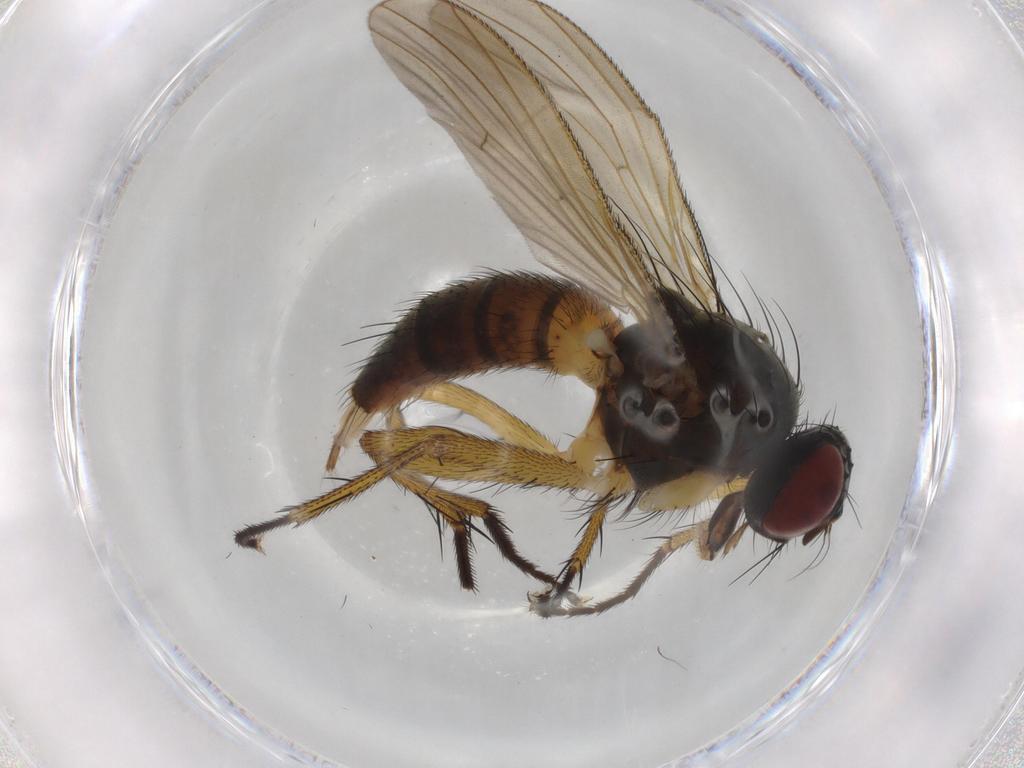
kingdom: Animalia
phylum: Arthropoda
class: Insecta
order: Diptera
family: Muscidae
